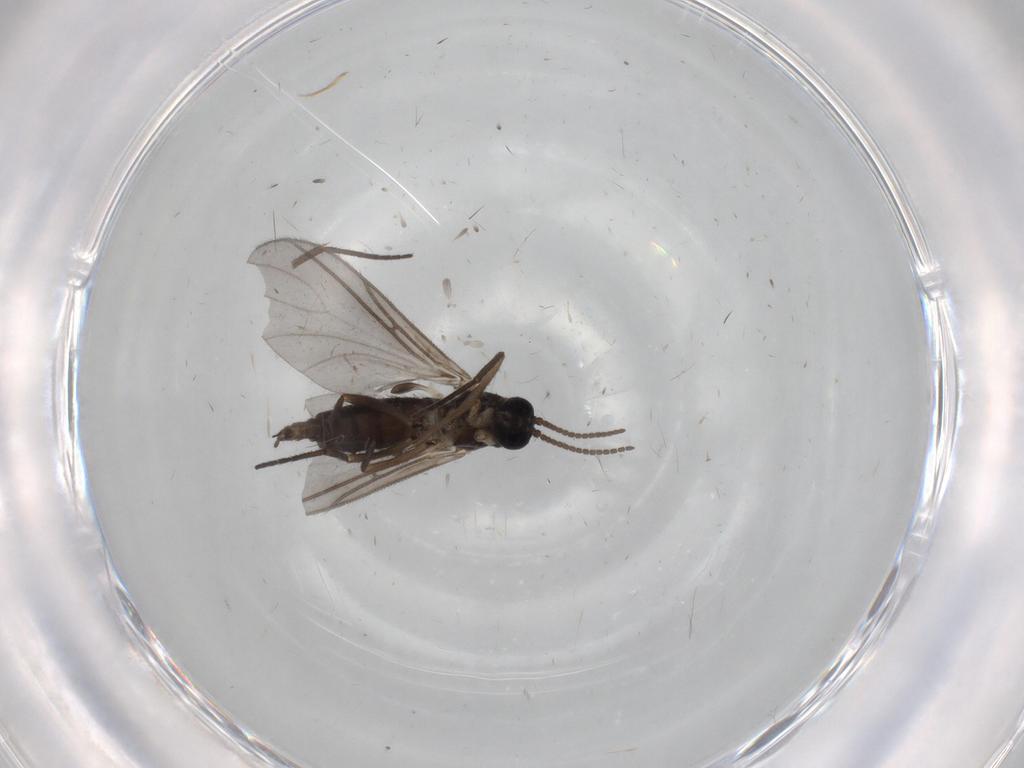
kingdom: Animalia
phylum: Arthropoda
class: Insecta
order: Diptera
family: Sciaridae
